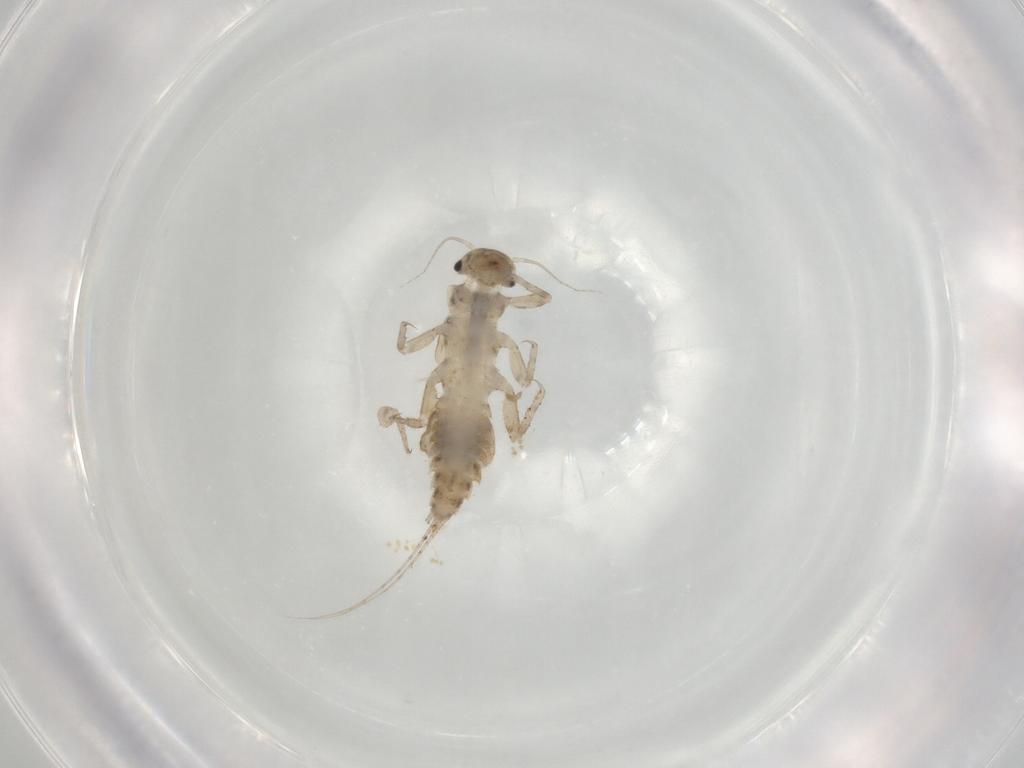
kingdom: Animalia
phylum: Arthropoda
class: Insecta
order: Ephemeroptera
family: Caenidae
